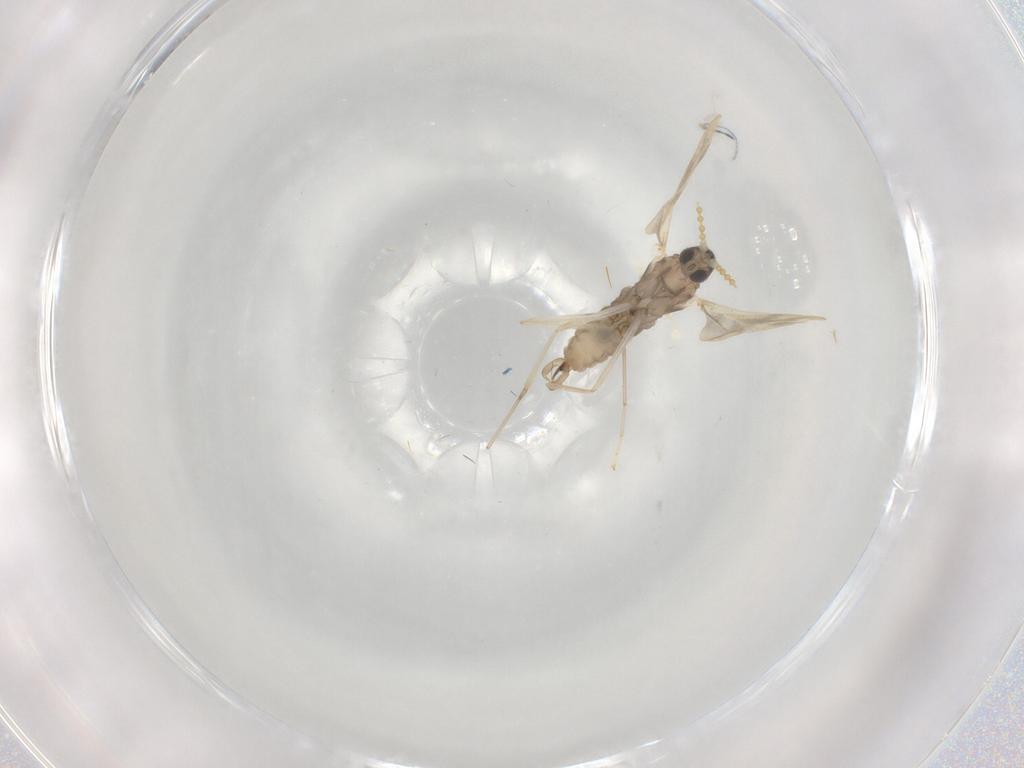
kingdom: Animalia
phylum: Arthropoda
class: Insecta
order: Diptera
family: Cecidomyiidae
